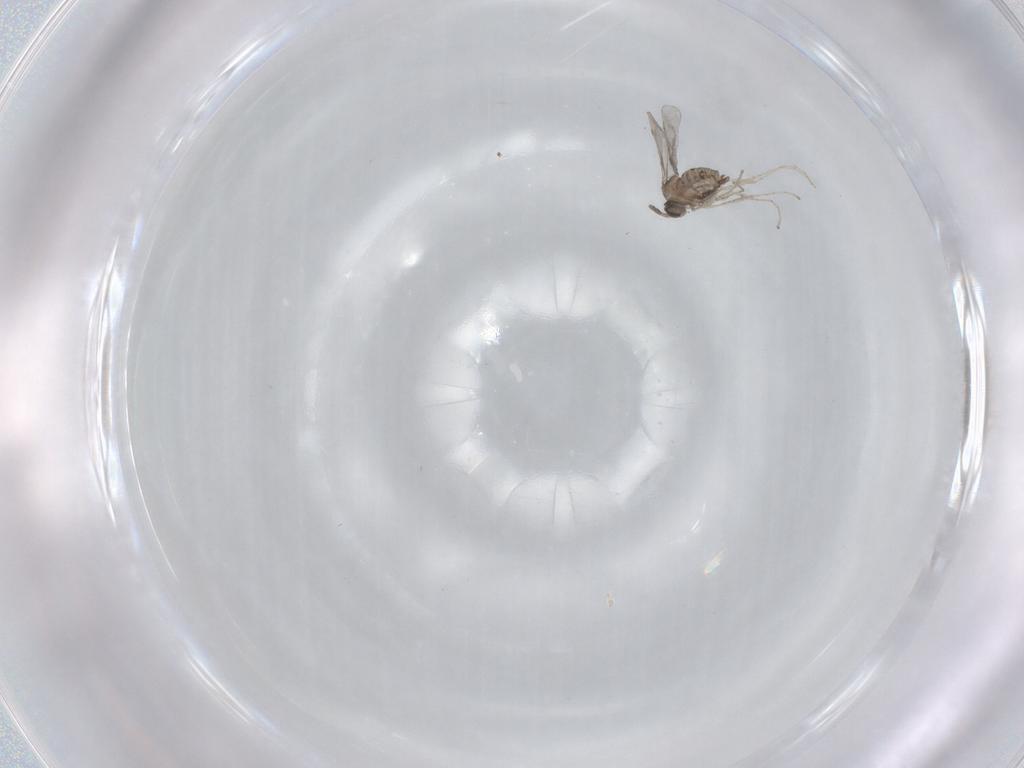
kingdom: Animalia
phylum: Arthropoda
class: Insecta
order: Diptera
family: Cecidomyiidae
